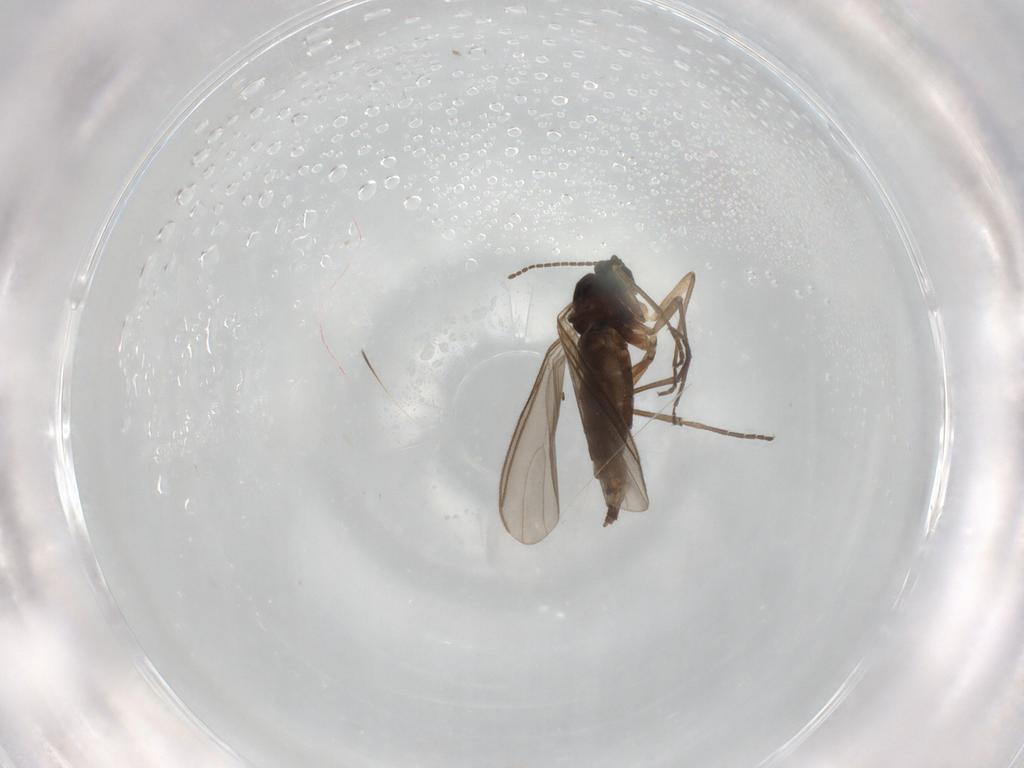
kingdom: Animalia
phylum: Arthropoda
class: Insecta
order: Diptera
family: Sciaridae
